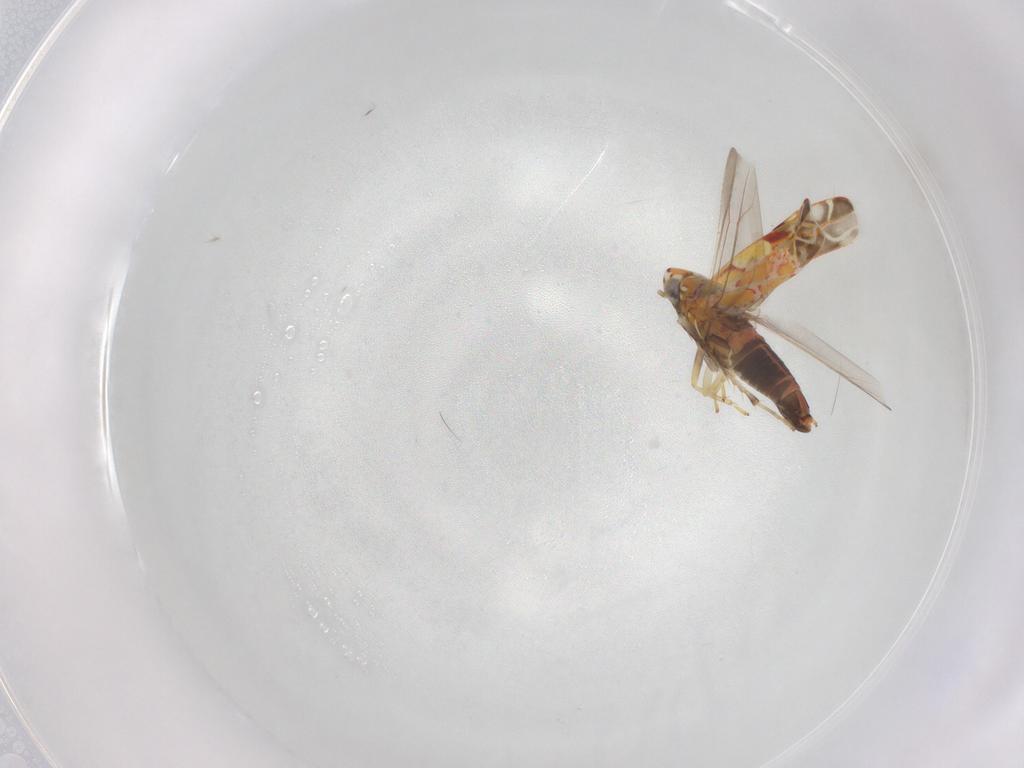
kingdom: Animalia
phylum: Arthropoda
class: Insecta
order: Hemiptera
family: Cicadellidae
